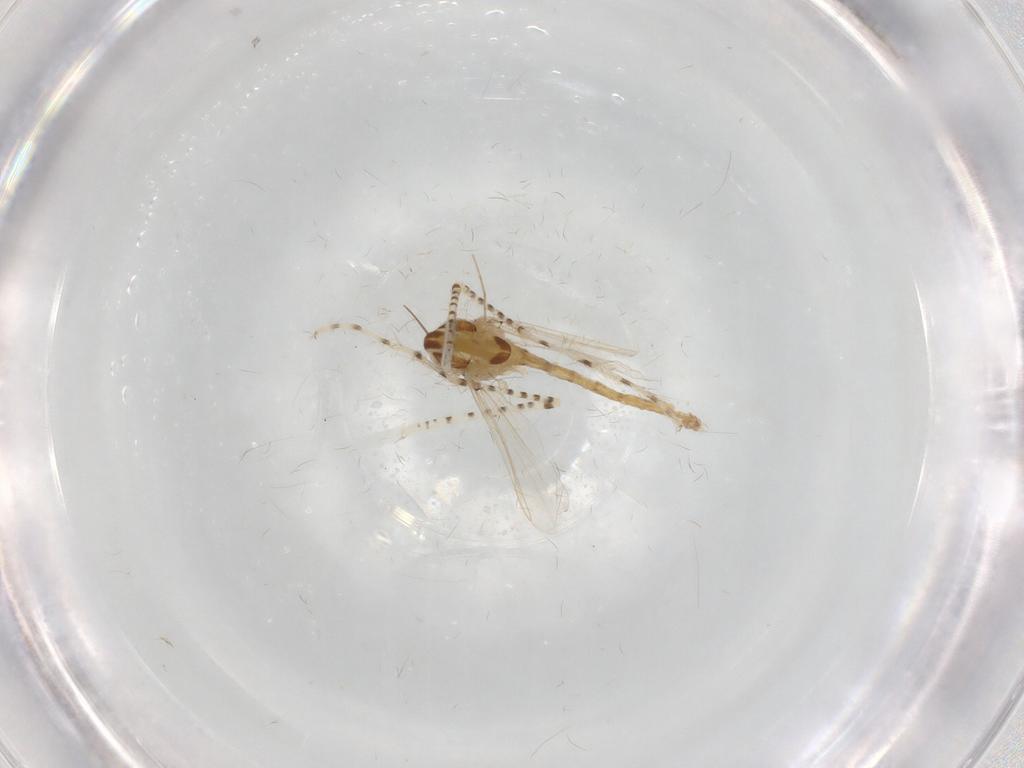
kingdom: Animalia
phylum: Arthropoda
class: Insecta
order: Diptera
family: Chaoboridae
